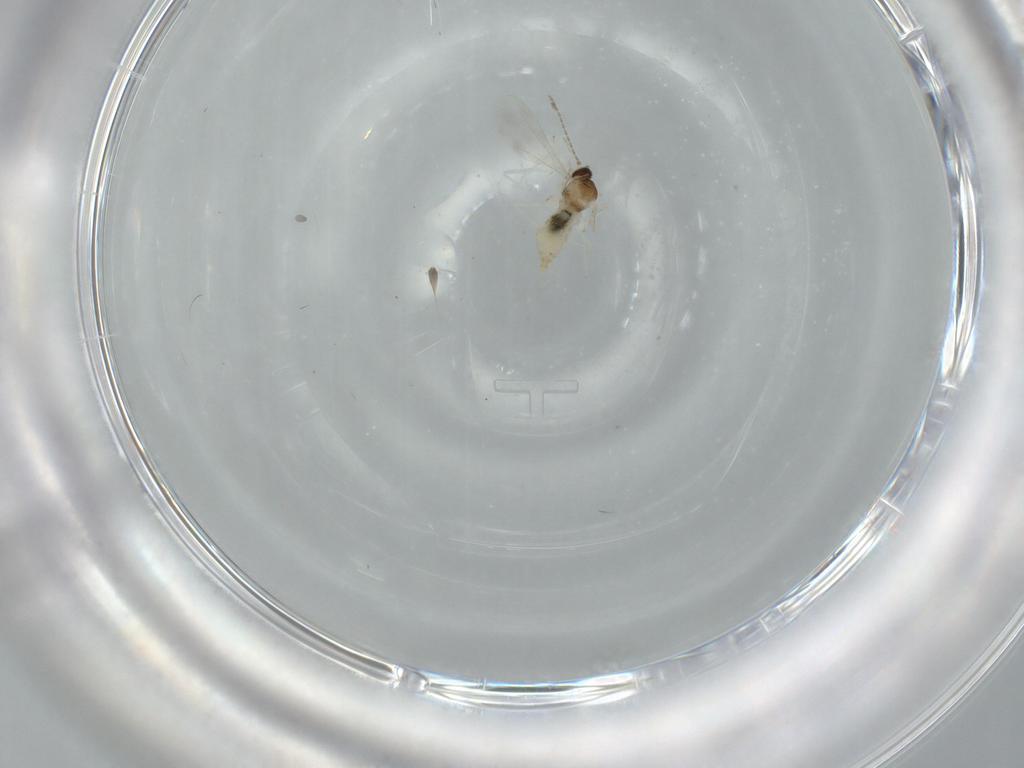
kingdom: Animalia
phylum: Arthropoda
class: Insecta
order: Diptera
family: Cecidomyiidae
